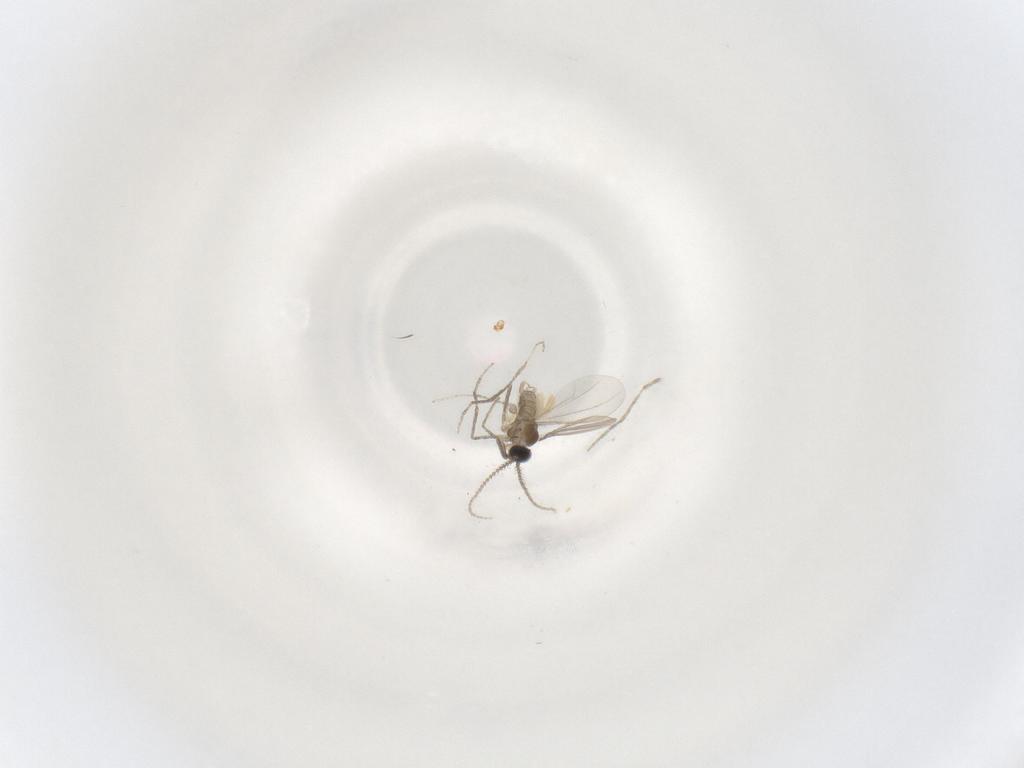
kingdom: Animalia
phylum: Arthropoda
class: Insecta
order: Diptera
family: Cecidomyiidae
